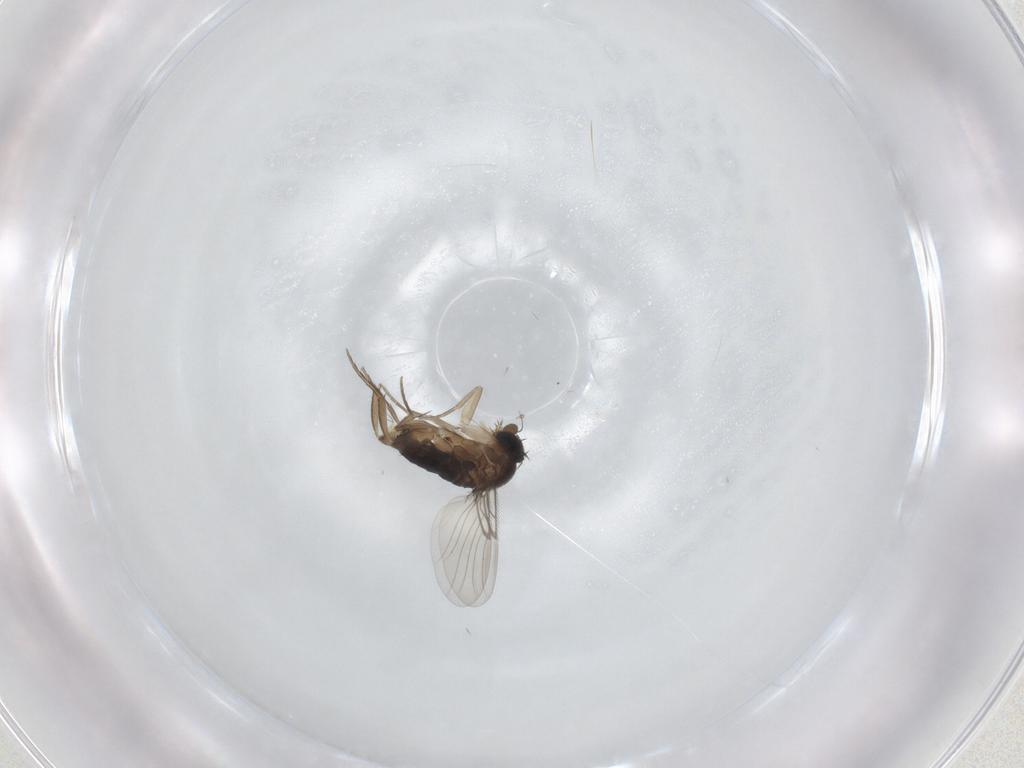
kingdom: Animalia
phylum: Arthropoda
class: Insecta
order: Diptera
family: Phoridae
